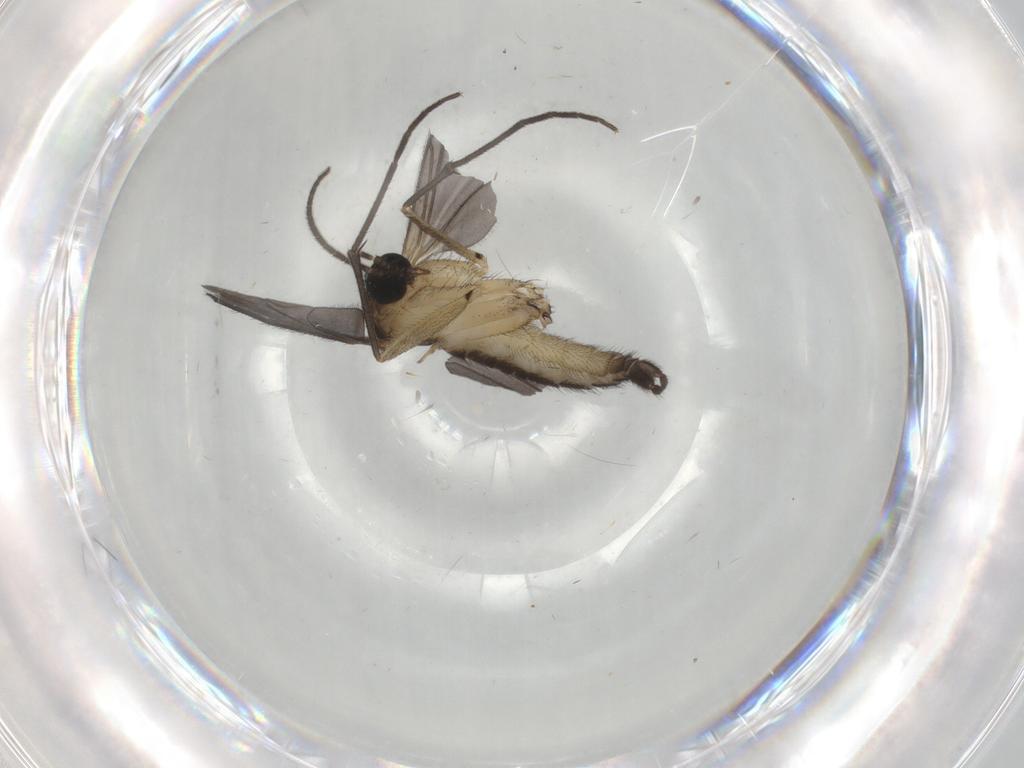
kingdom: Animalia
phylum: Arthropoda
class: Insecta
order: Diptera
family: Sciaridae
